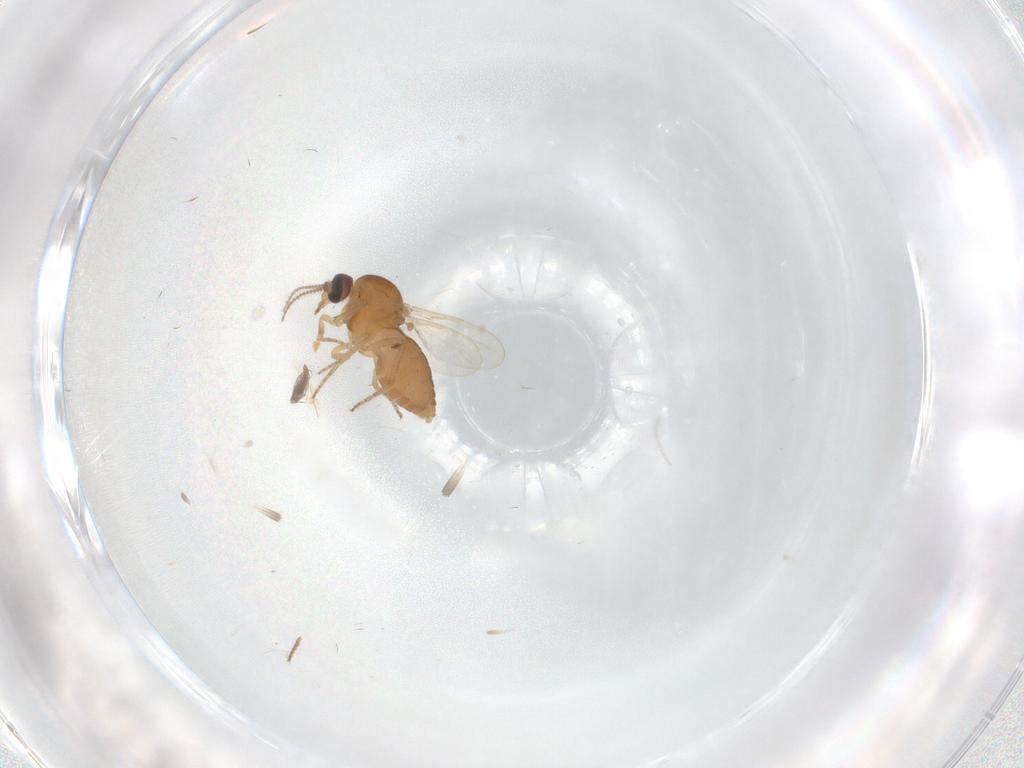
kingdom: Animalia
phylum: Arthropoda
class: Insecta
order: Diptera
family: Ceratopogonidae
